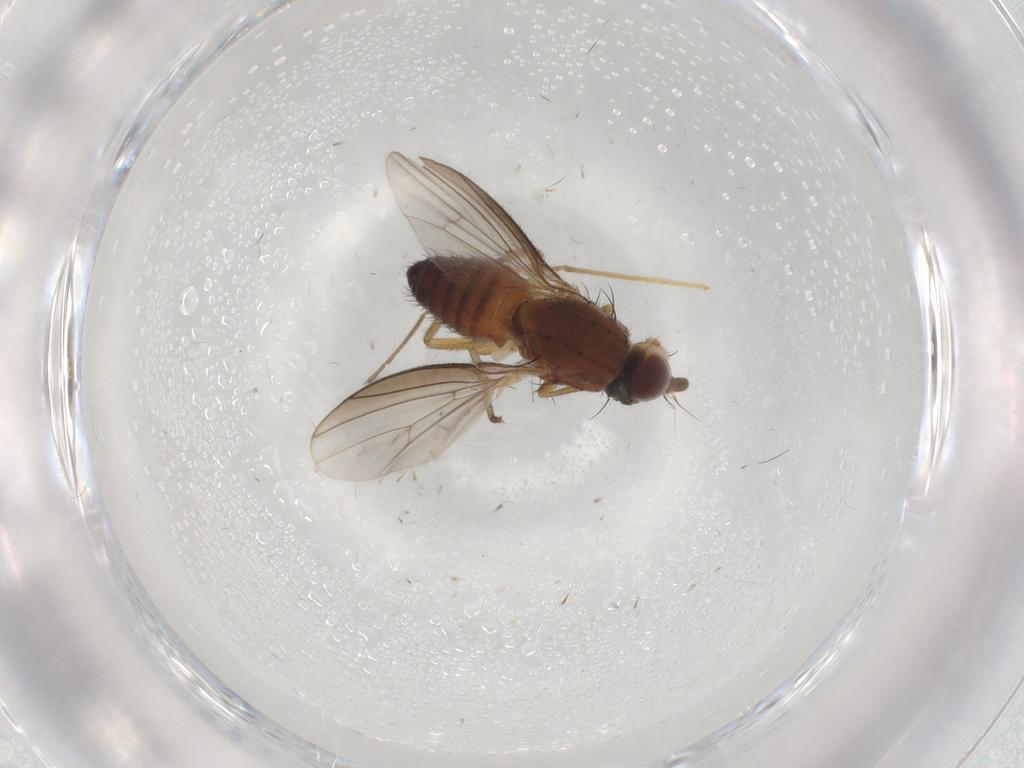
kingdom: Animalia
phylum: Arthropoda
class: Insecta
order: Diptera
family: Heleomyzidae
